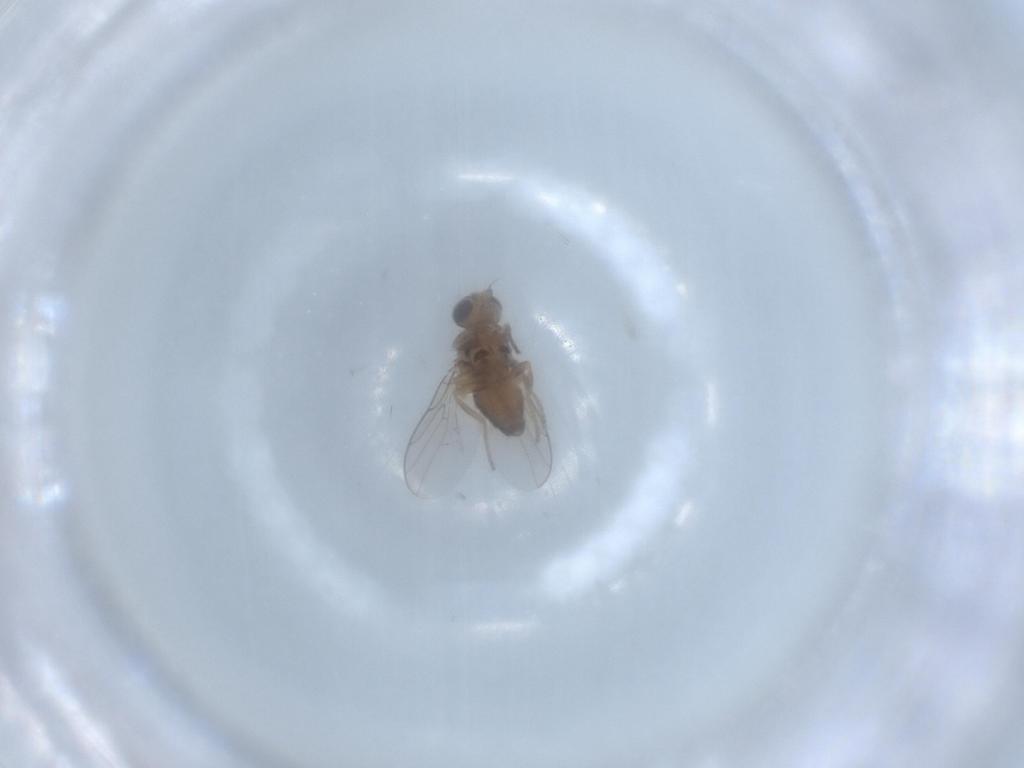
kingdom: Animalia
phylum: Arthropoda
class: Insecta
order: Diptera
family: Chloropidae
